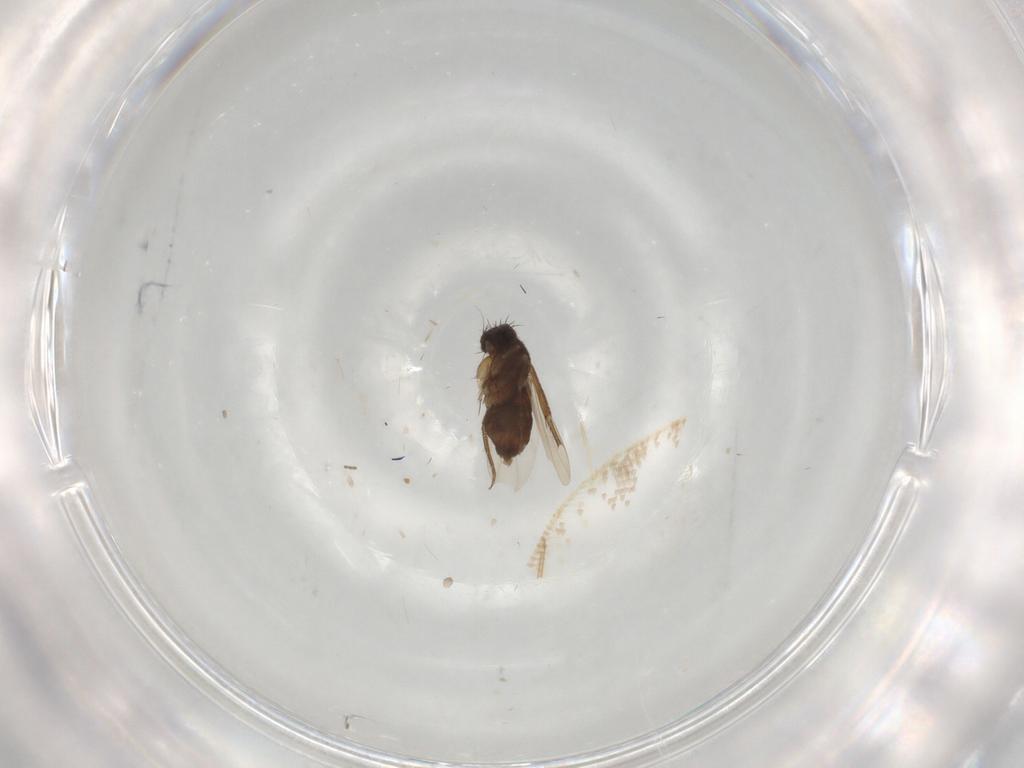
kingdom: Animalia
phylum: Arthropoda
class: Insecta
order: Diptera
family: Phoridae
